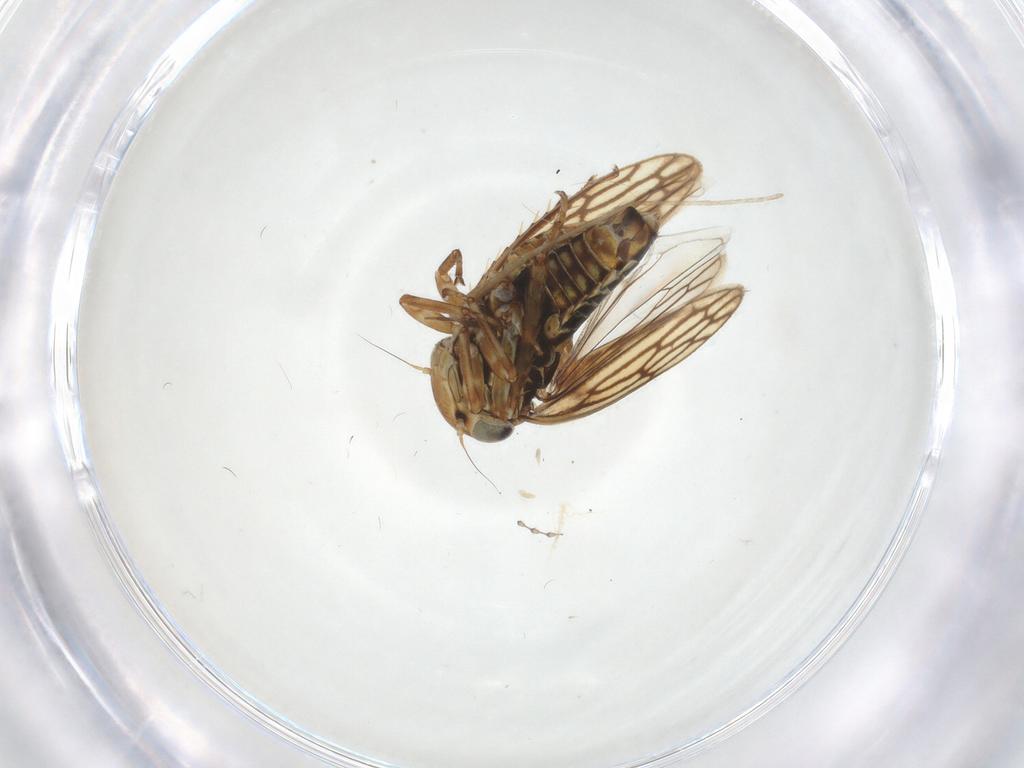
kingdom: Animalia
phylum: Arthropoda
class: Insecta
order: Hemiptera
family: Cicadellidae
